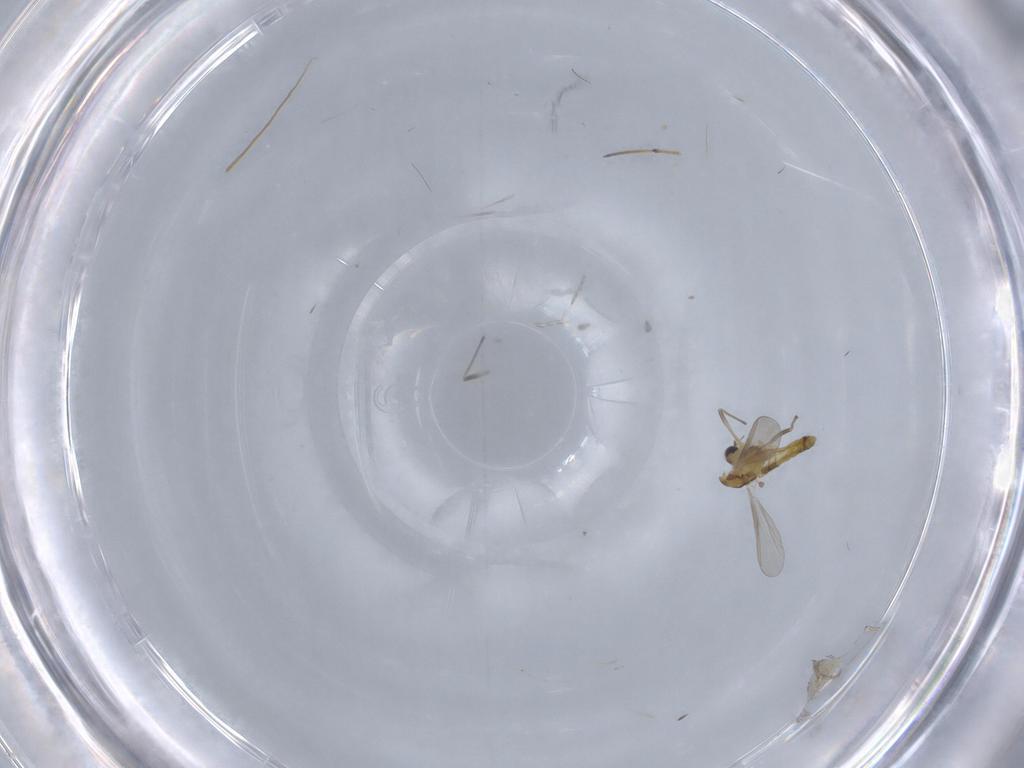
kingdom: Animalia
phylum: Arthropoda
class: Insecta
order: Diptera
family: Chironomidae
